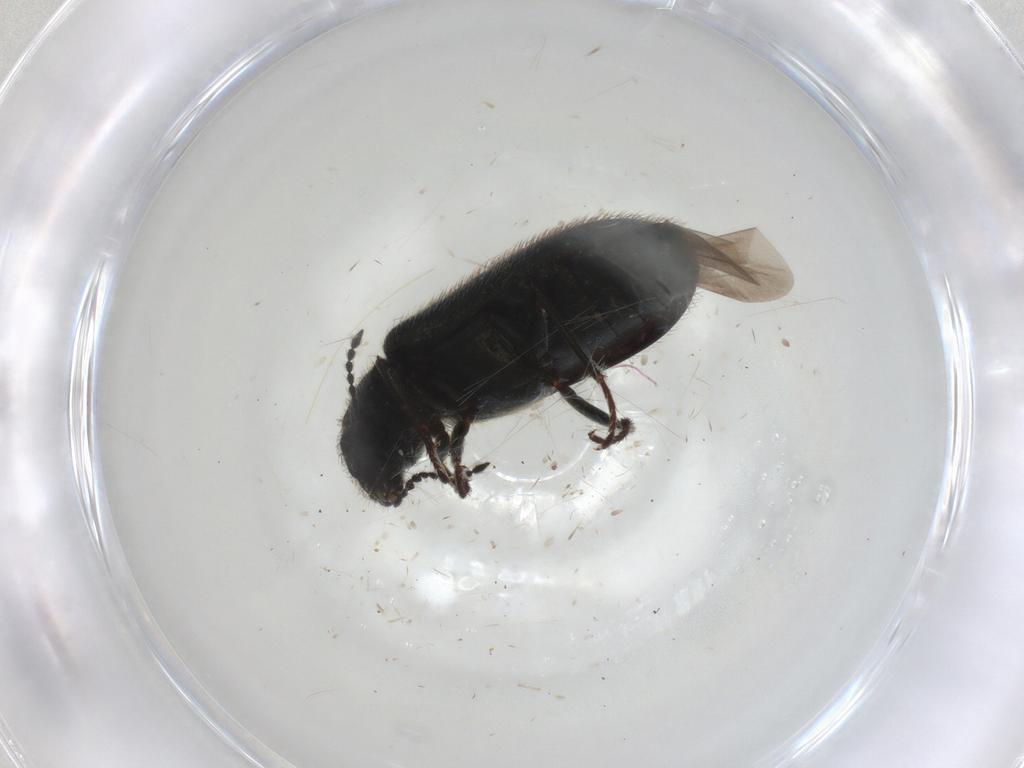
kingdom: Animalia
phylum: Arthropoda
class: Insecta
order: Coleoptera
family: Melyridae
